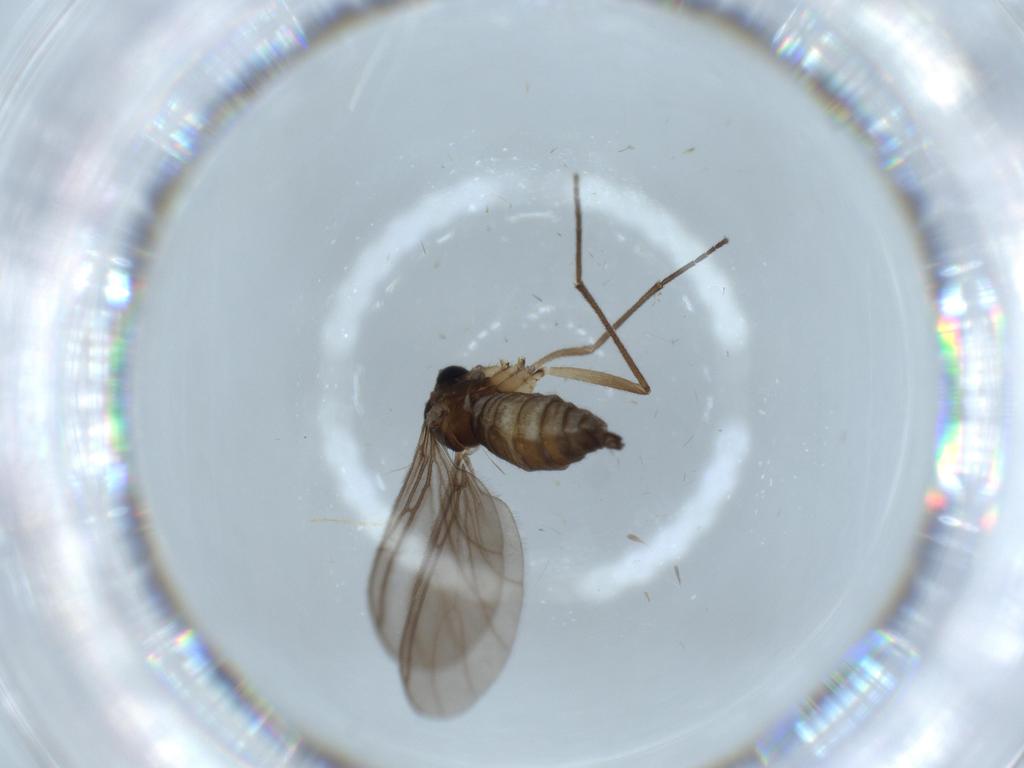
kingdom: Animalia
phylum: Arthropoda
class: Insecta
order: Diptera
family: Sciaridae
